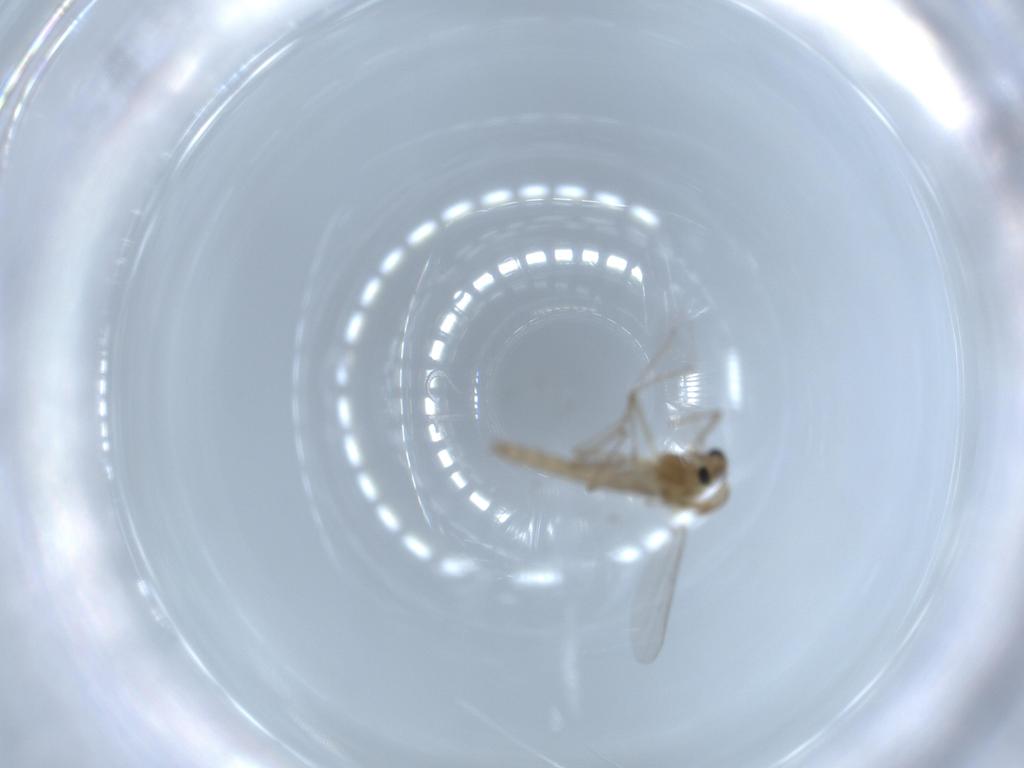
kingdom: Animalia
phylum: Arthropoda
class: Insecta
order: Diptera
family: Chironomidae
